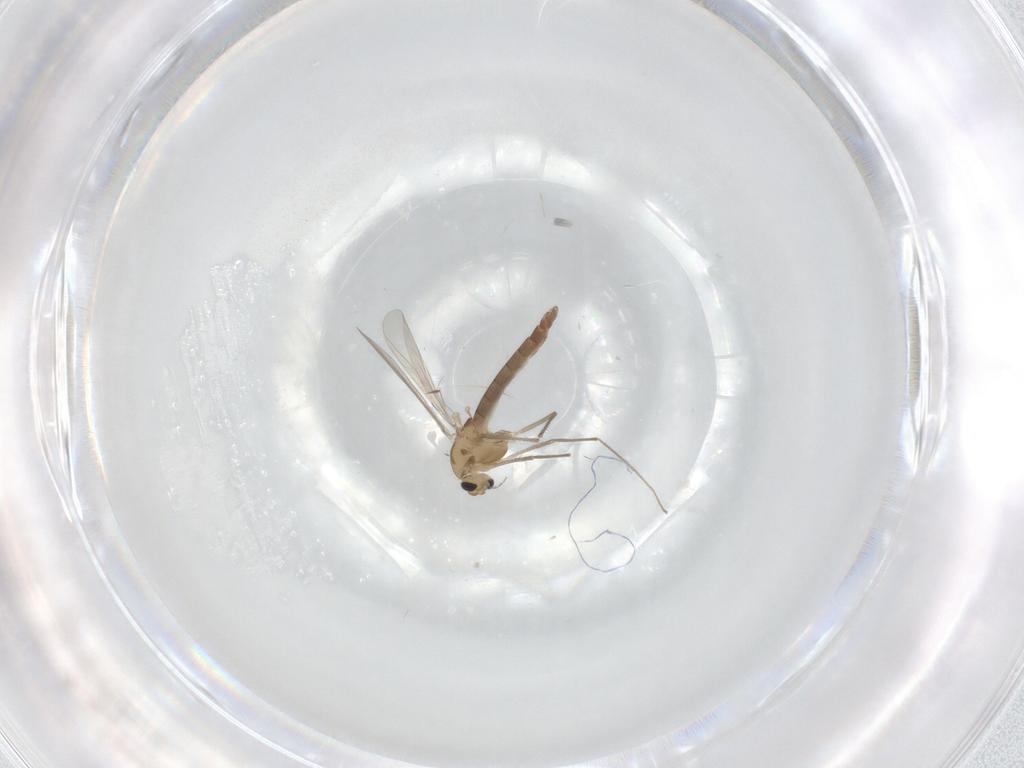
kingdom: Animalia
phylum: Arthropoda
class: Insecta
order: Diptera
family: Chironomidae
